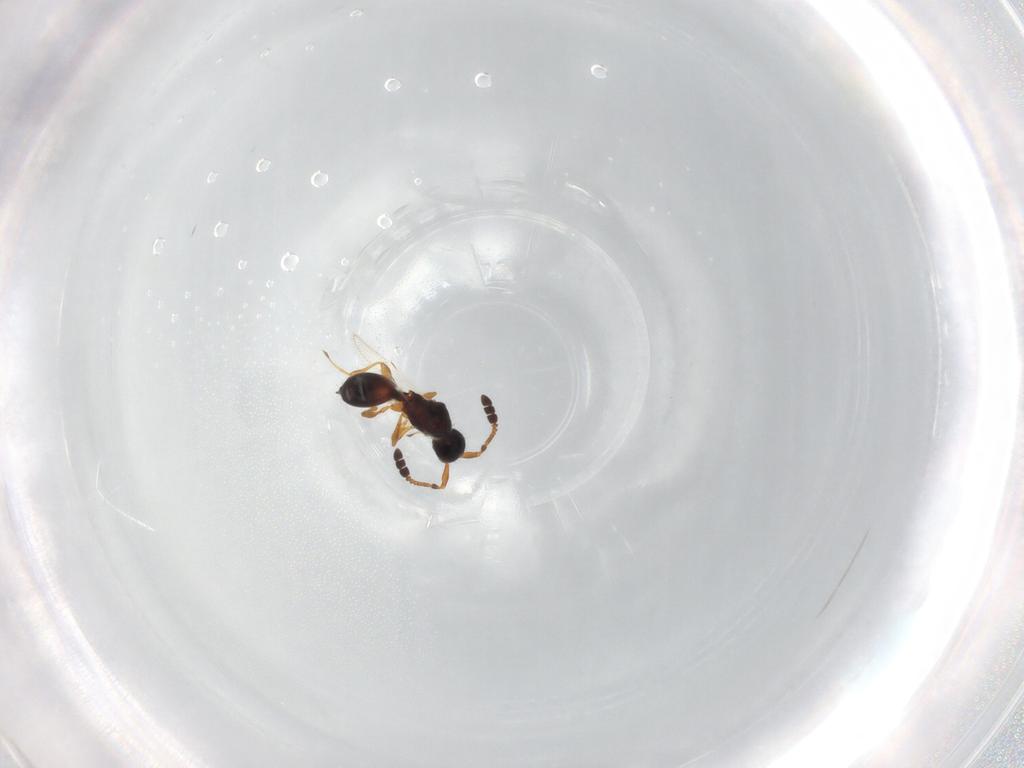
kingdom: Animalia
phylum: Arthropoda
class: Insecta
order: Hymenoptera
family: Diapriidae
